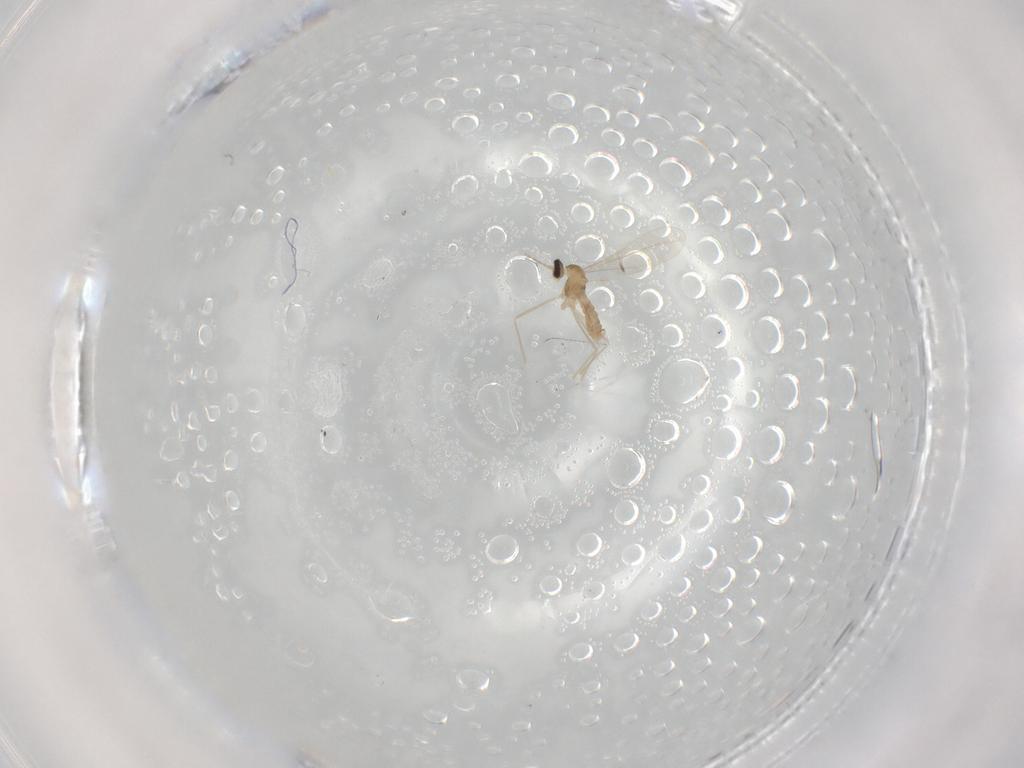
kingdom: Animalia
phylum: Arthropoda
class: Insecta
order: Diptera
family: Cecidomyiidae
